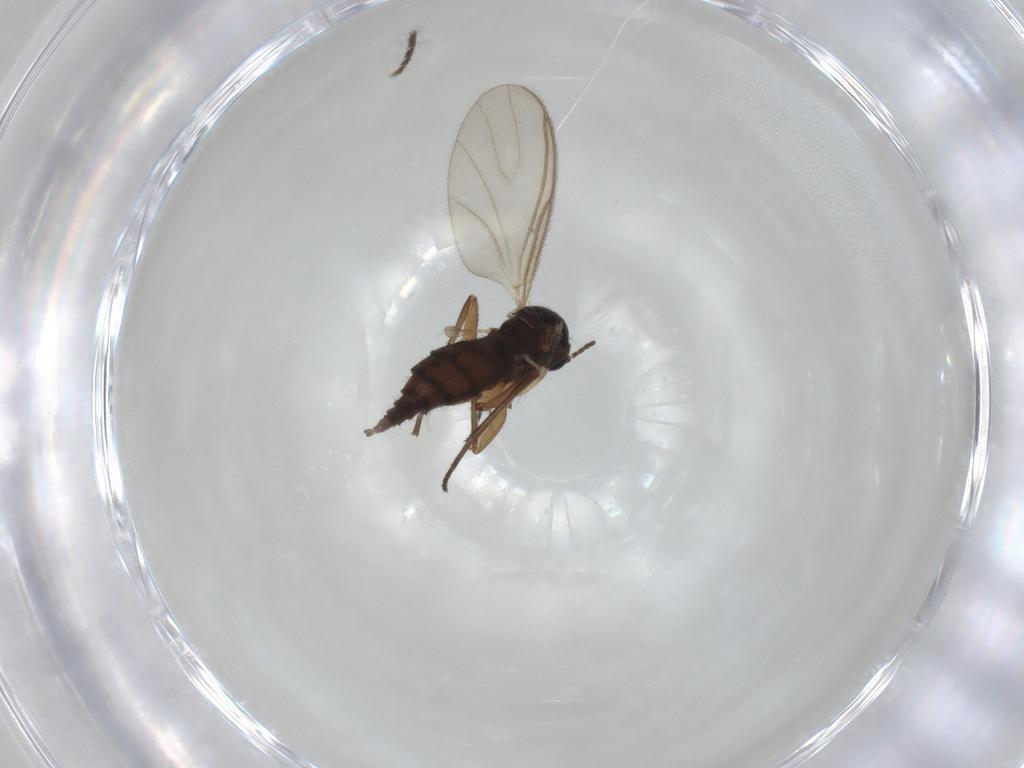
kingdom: Animalia
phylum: Arthropoda
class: Insecta
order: Diptera
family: Sciaridae
